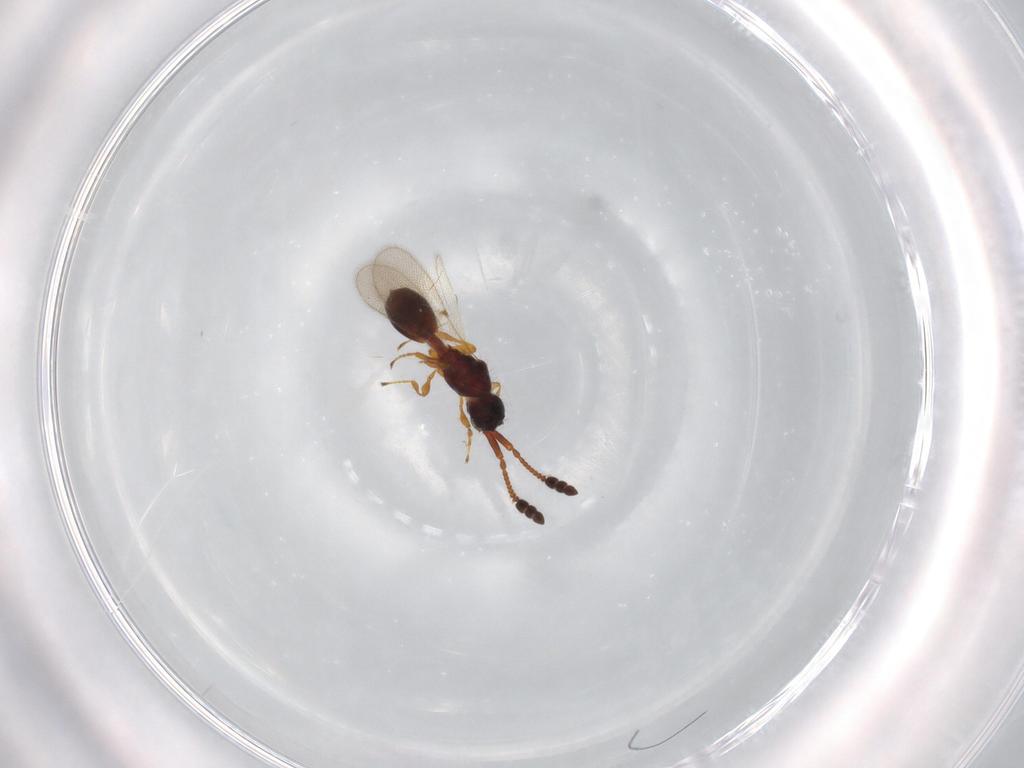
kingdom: Animalia
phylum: Arthropoda
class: Insecta
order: Hymenoptera
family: Diapriidae
